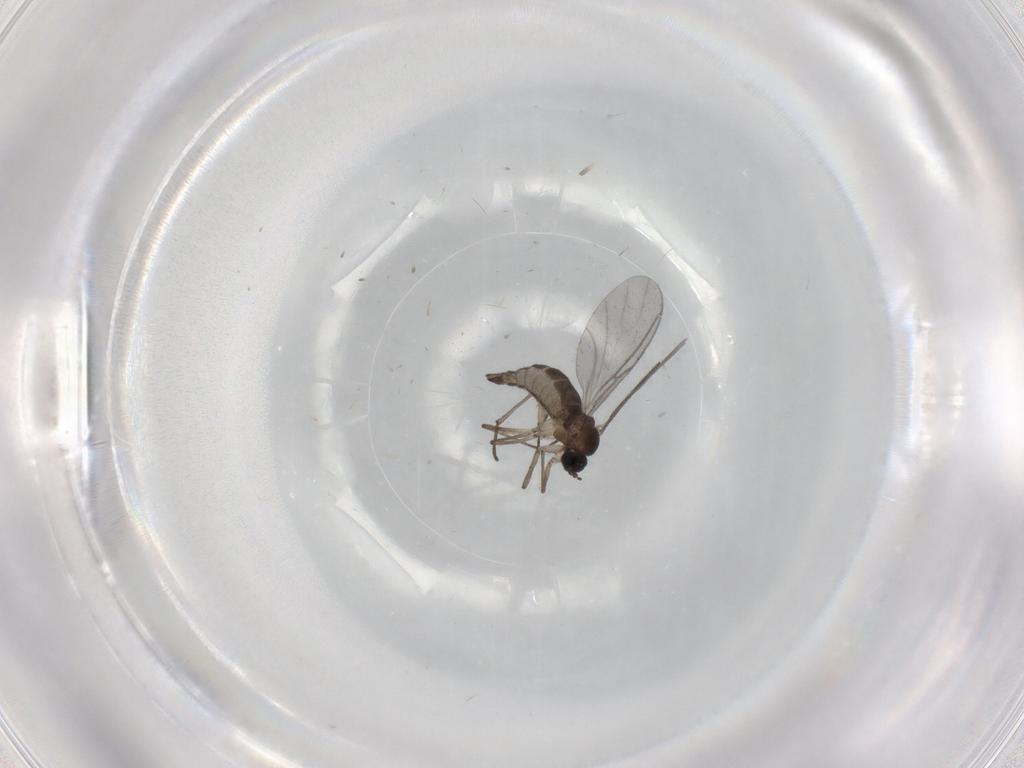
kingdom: Animalia
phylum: Arthropoda
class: Insecta
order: Diptera
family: Sciaridae
